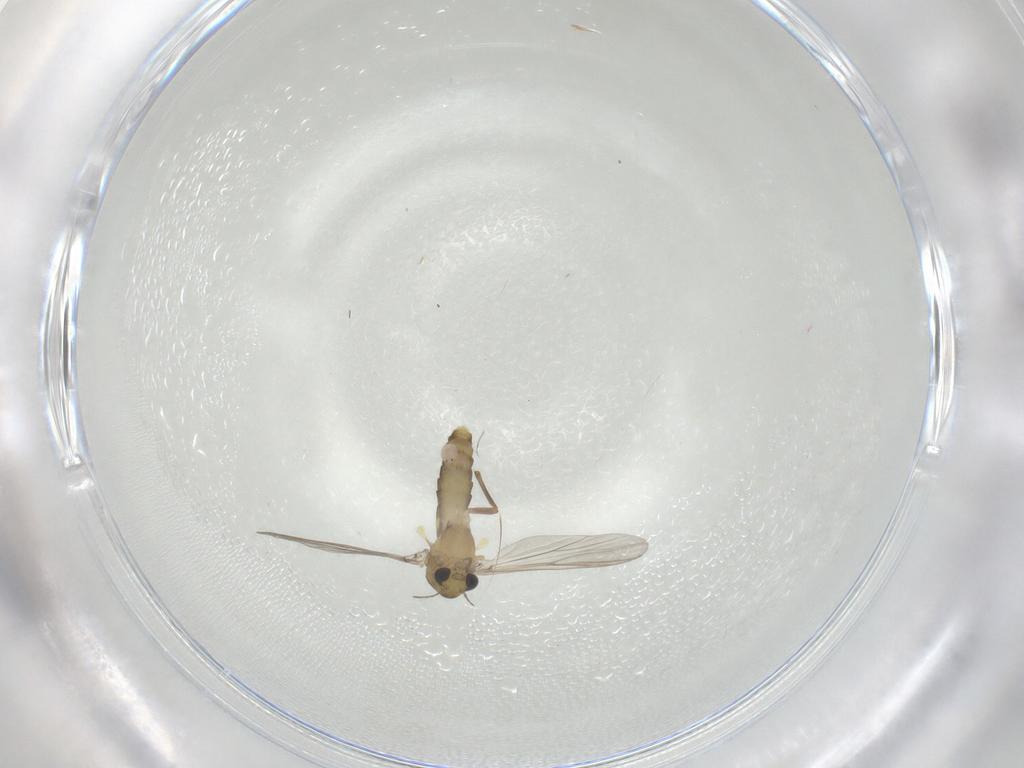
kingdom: Animalia
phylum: Arthropoda
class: Insecta
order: Diptera
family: Chironomidae
